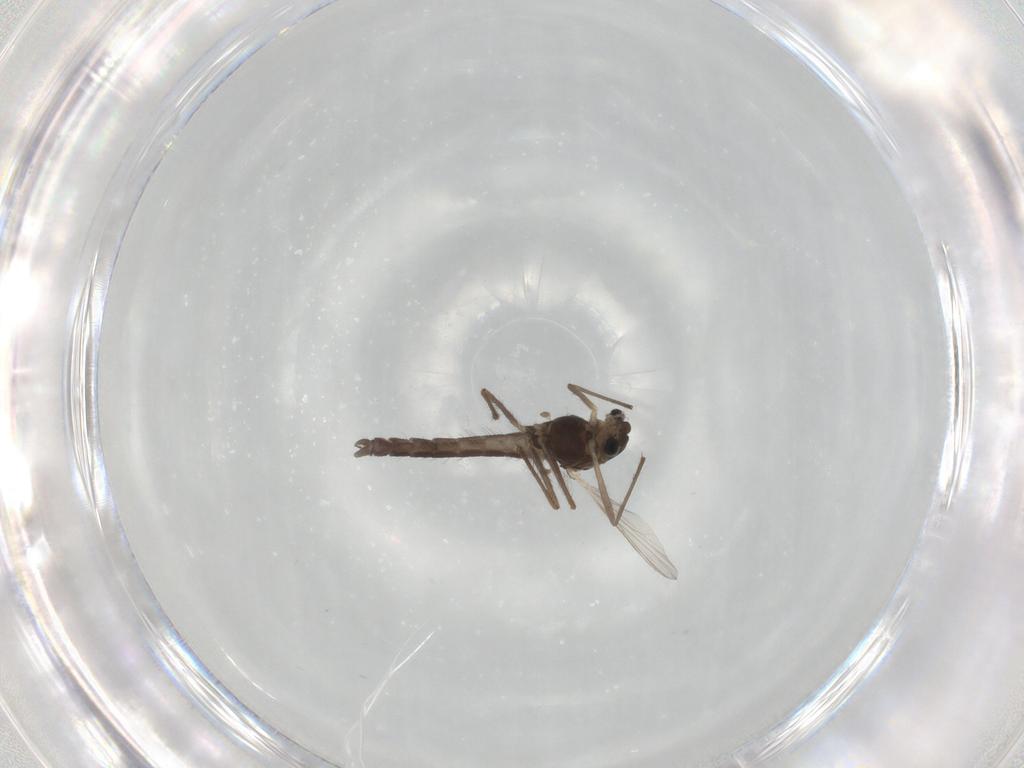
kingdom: Animalia
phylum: Arthropoda
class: Insecta
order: Diptera
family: Chironomidae
